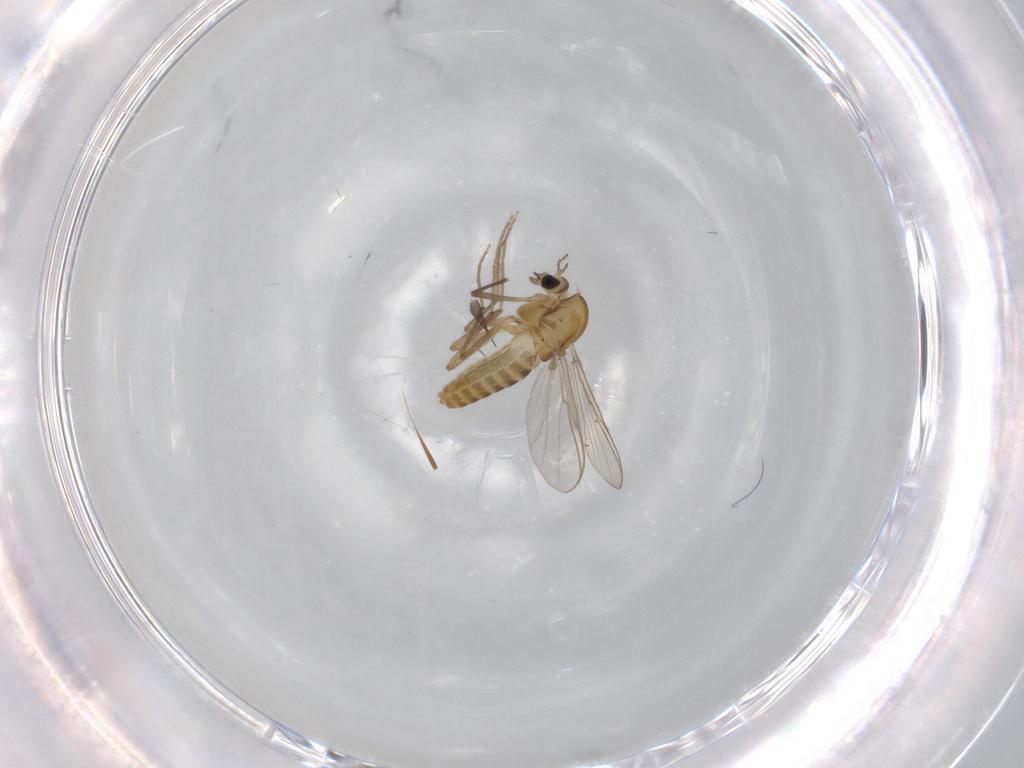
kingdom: Animalia
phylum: Arthropoda
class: Insecta
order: Diptera
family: Chironomidae
